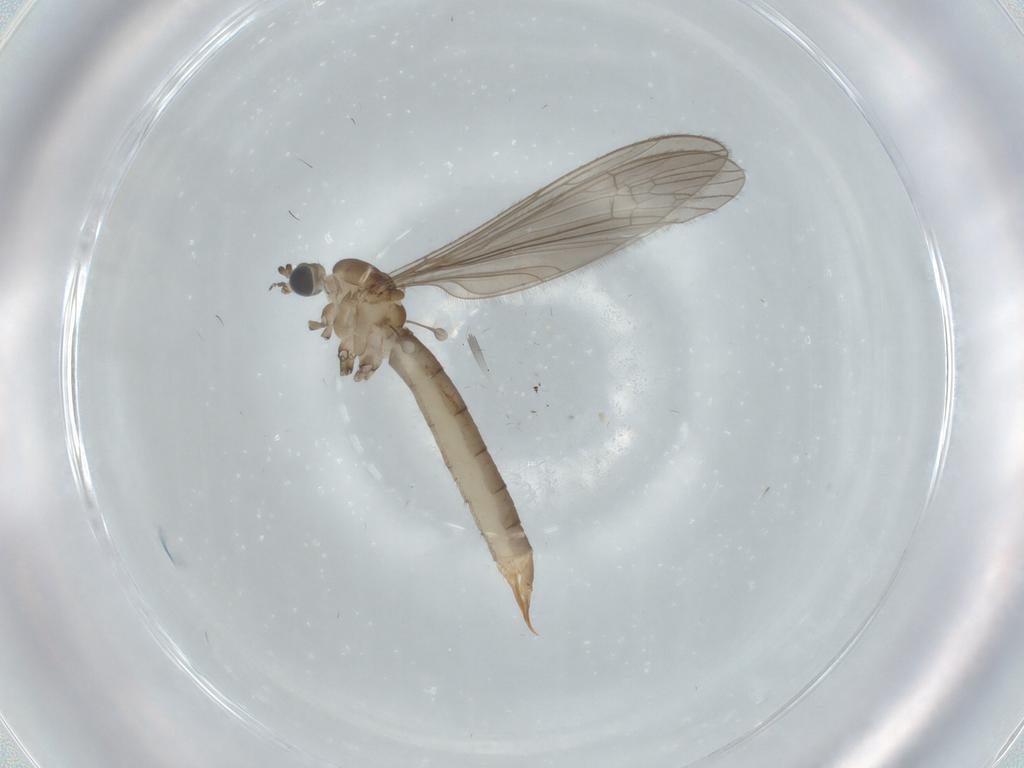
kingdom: Animalia
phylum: Arthropoda
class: Insecta
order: Diptera
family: Limoniidae
